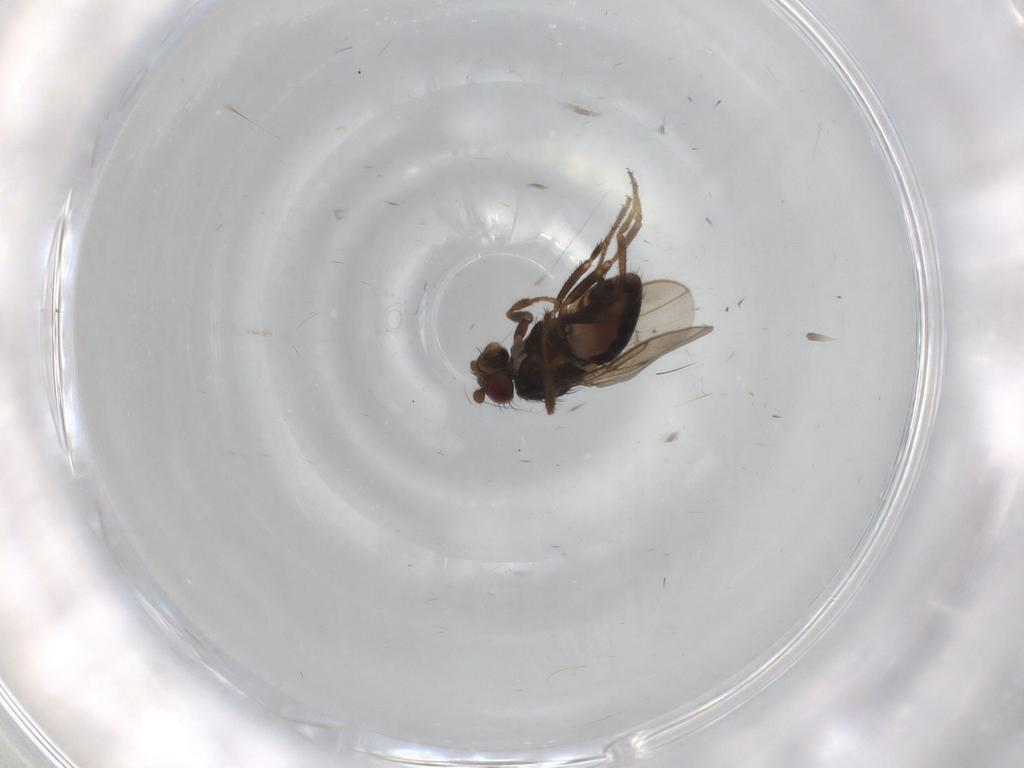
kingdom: Animalia
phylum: Arthropoda
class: Insecta
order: Diptera
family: Sphaeroceridae
